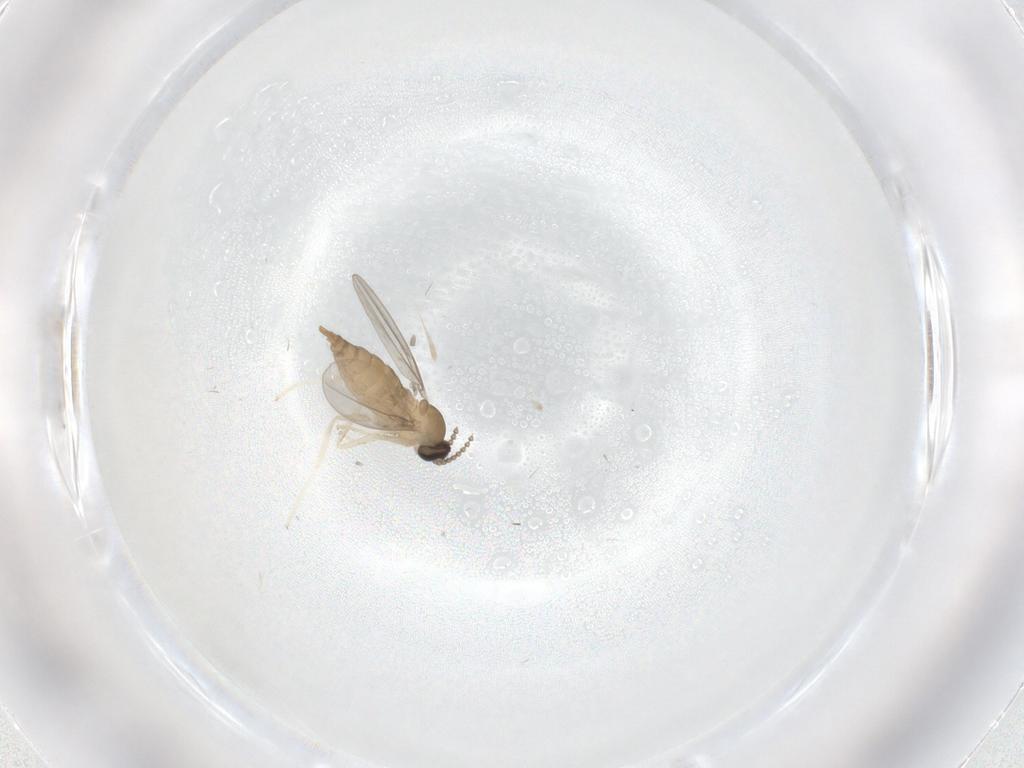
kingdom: Animalia
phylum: Arthropoda
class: Insecta
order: Diptera
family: Cecidomyiidae
